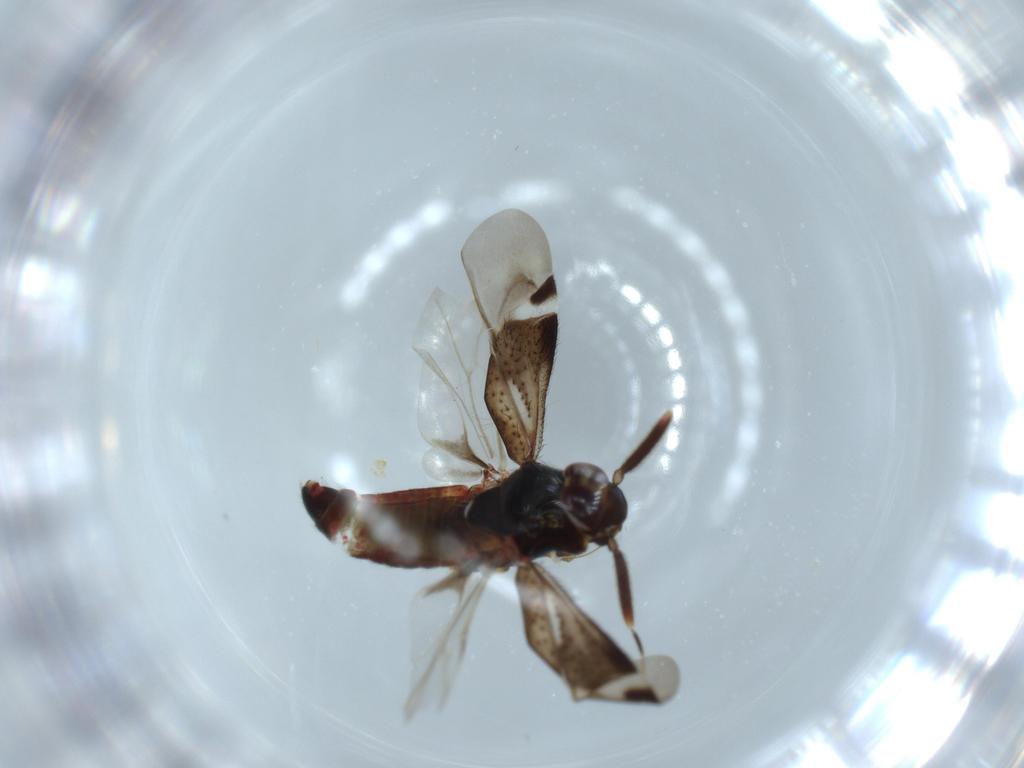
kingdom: Animalia
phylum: Arthropoda
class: Insecta
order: Hemiptera
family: Miridae
